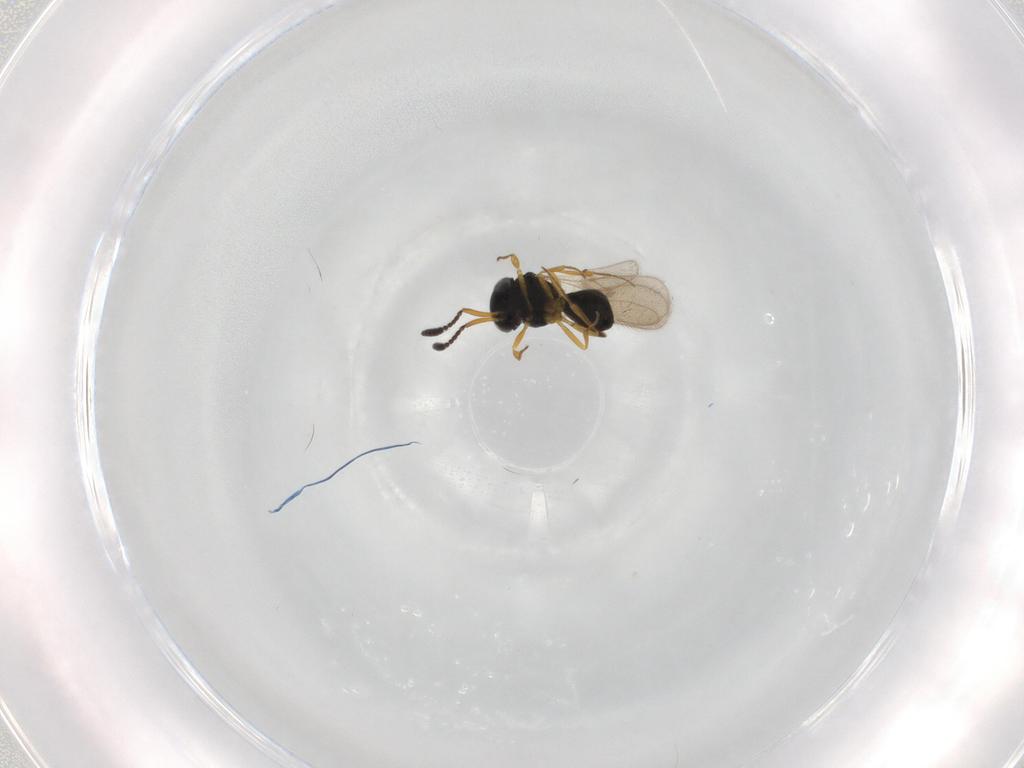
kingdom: Animalia
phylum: Arthropoda
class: Insecta
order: Hymenoptera
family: Scelionidae
